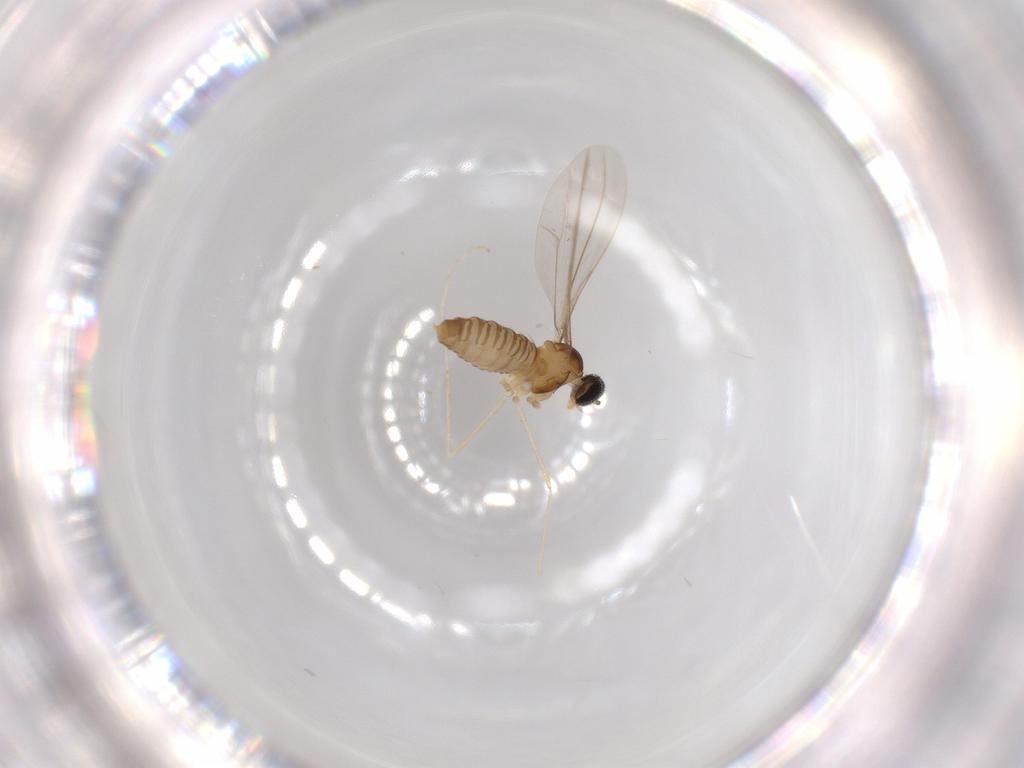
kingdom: Animalia
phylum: Arthropoda
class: Insecta
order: Diptera
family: Cecidomyiidae
